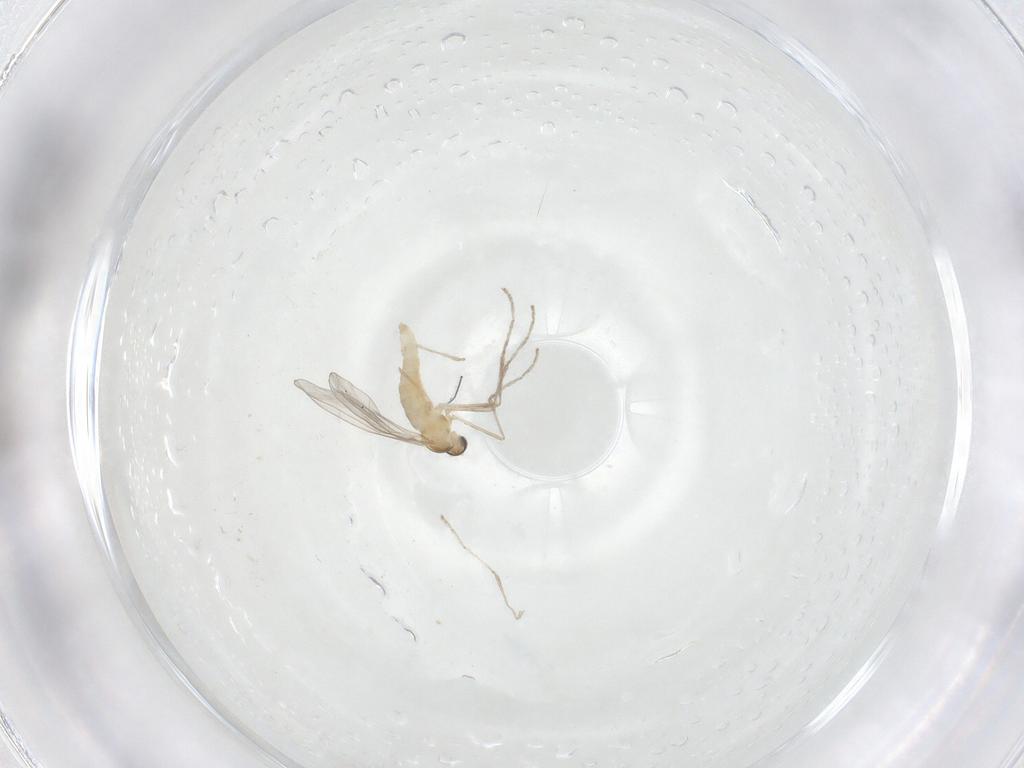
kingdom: Animalia
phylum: Arthropoda
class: Insecta
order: Diptera
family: Cecidomyiidae
